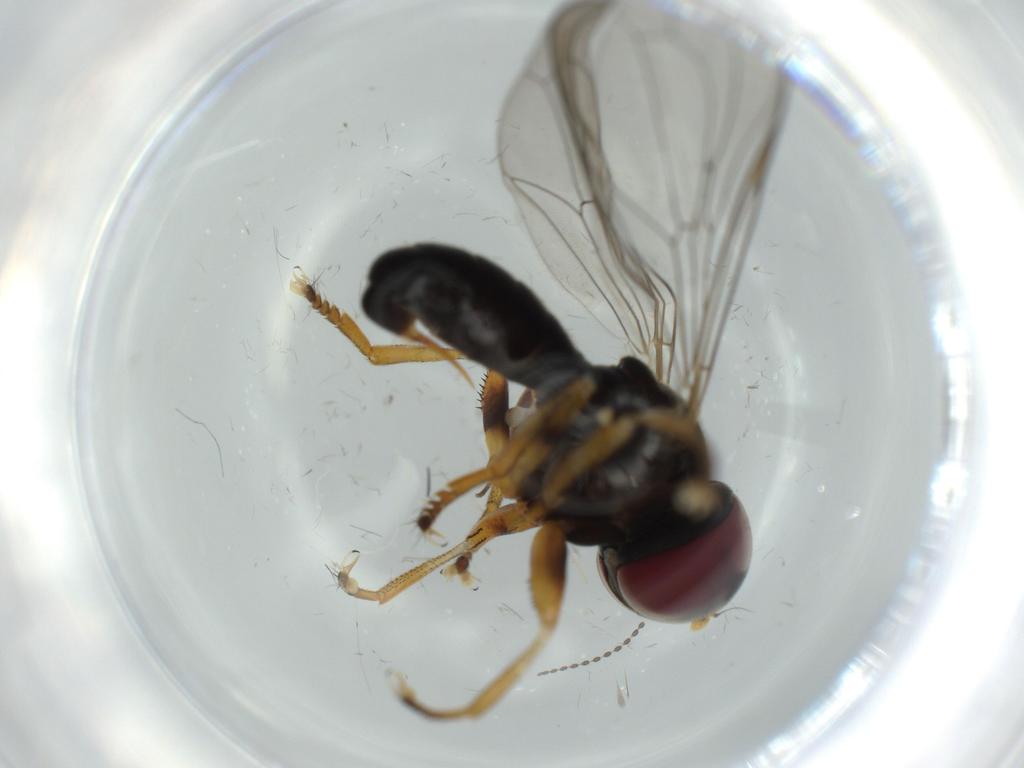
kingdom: Animalia
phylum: Arthropoda
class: Insecta
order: Diptera
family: Pipunculidae
